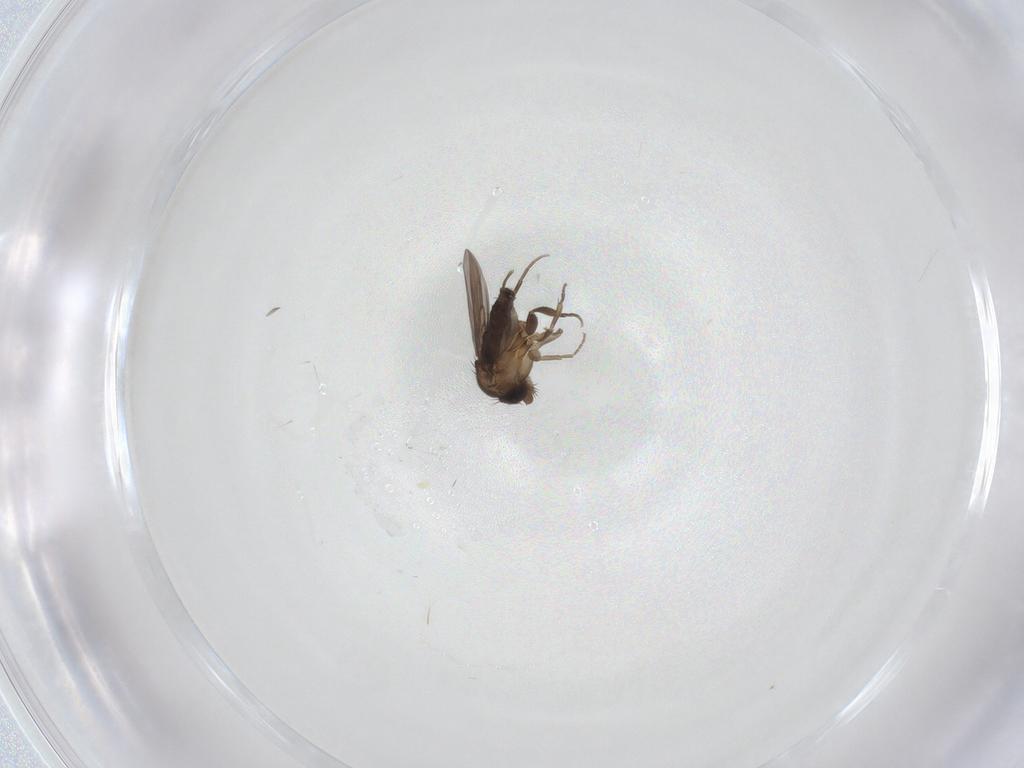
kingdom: Animalia
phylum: Arthropoda
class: Insecta
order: Diptera
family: Phoridae
